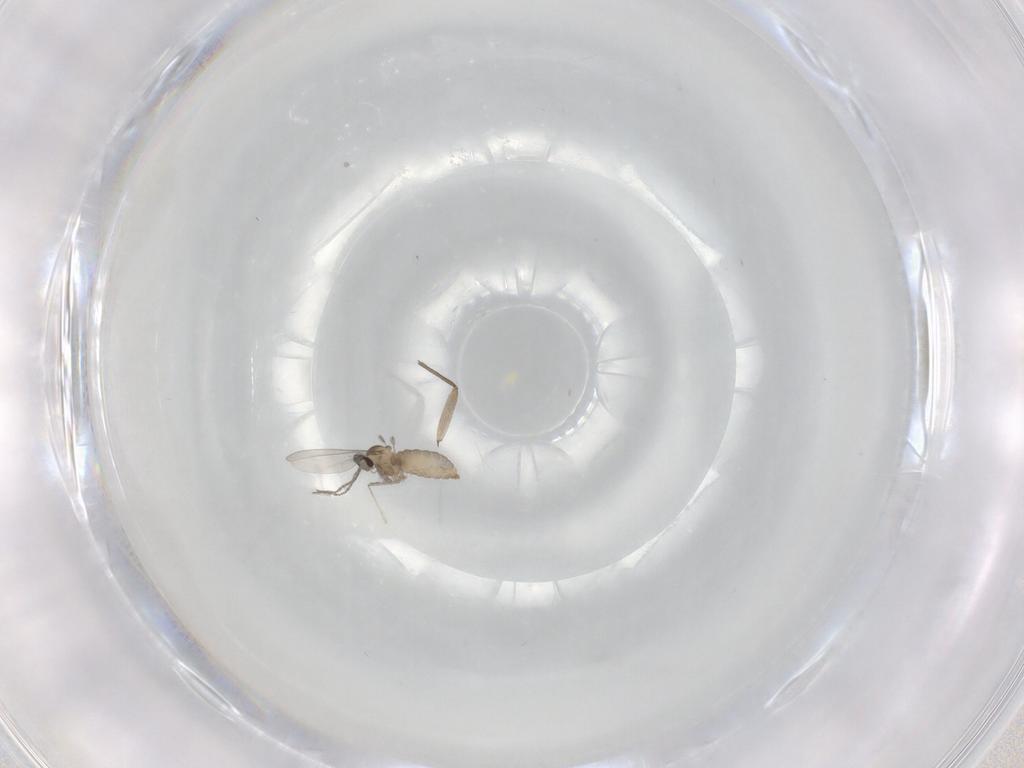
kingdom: Animalia
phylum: Arthropoda
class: Insecta
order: Diptera
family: Cecidomyiidae
